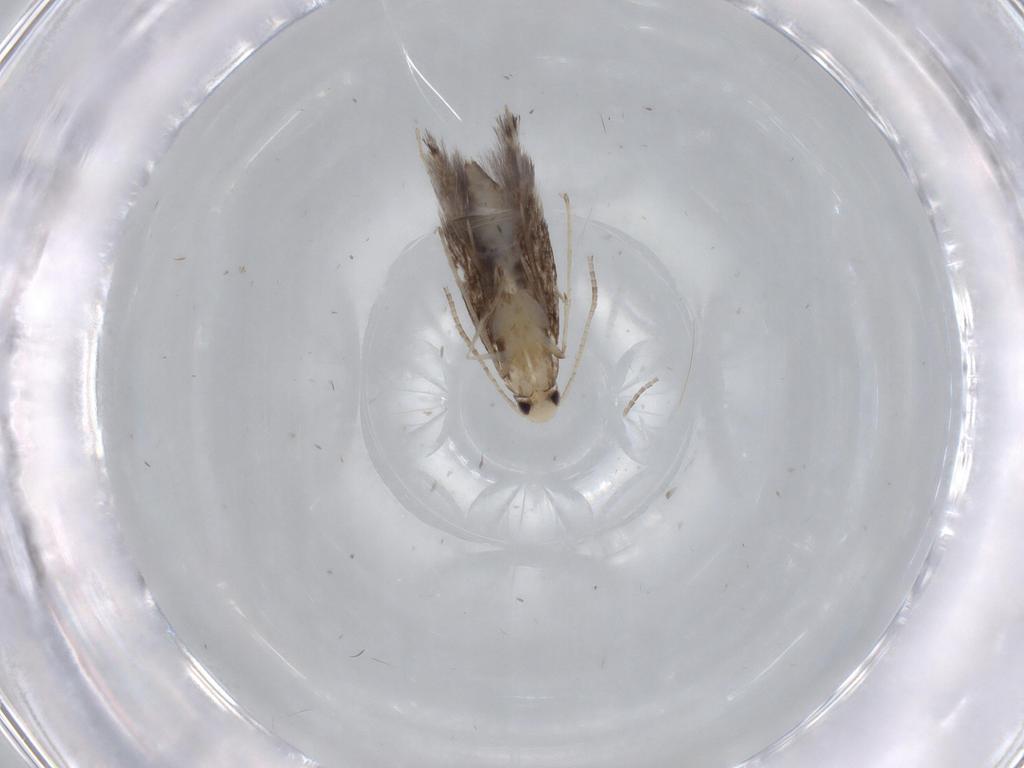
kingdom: Animalia
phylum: Arthropoda
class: Insecta
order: Lepidoptera
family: Nepticulidae
